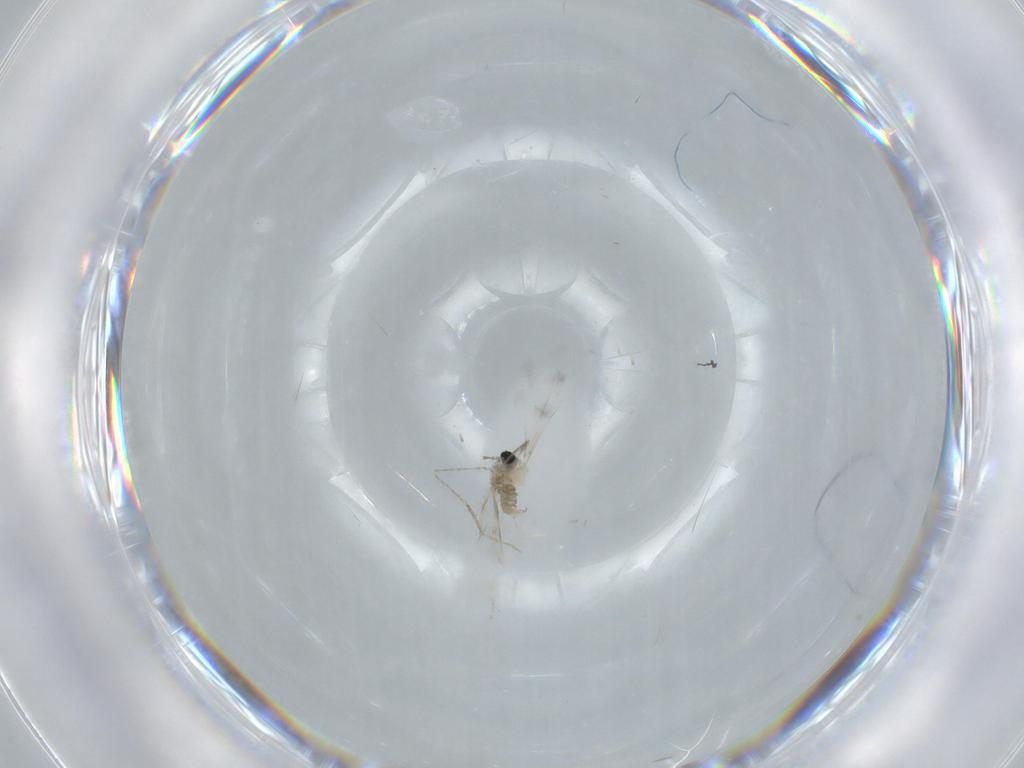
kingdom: Animalia
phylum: Arthropoda
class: Insecta
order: Diptera
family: Cecidomyiidae
